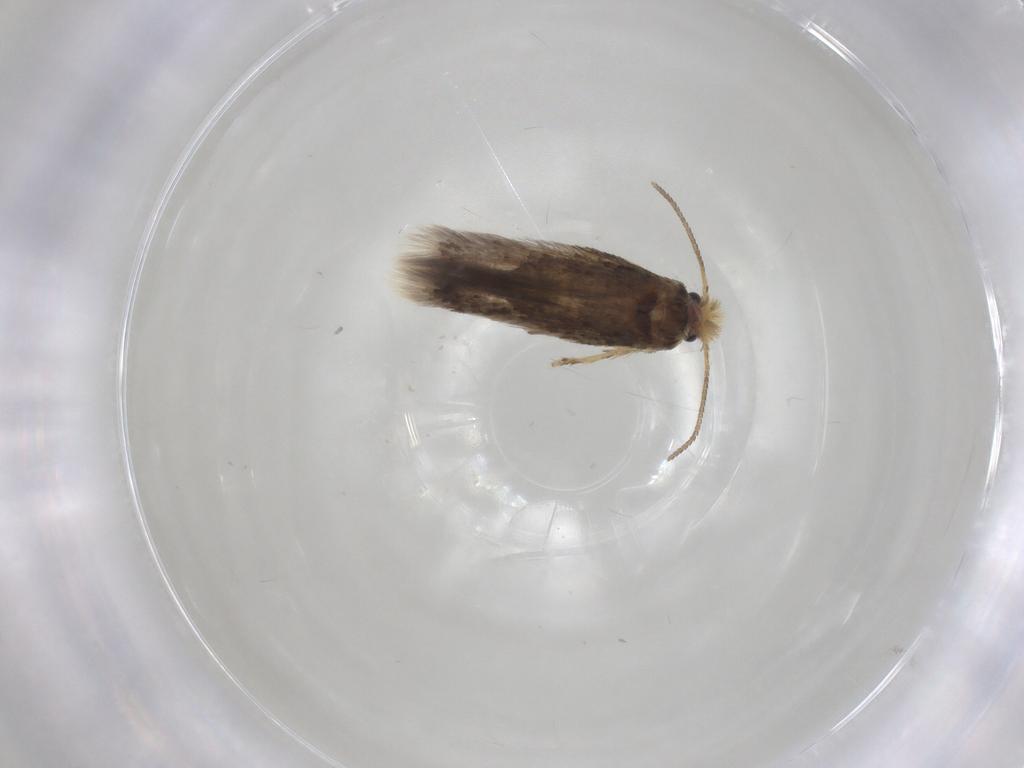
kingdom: Animalia
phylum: Arthropoda
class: Insecta
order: Lepidoptera
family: Nepticulidae
